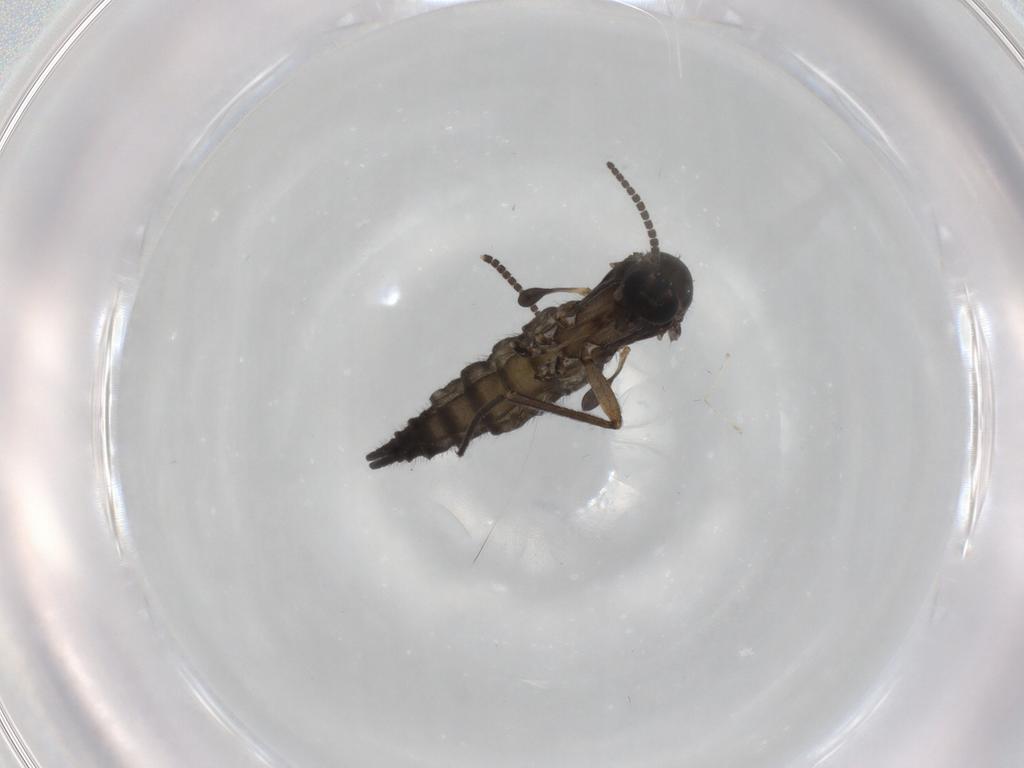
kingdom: Animalia
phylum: Arthropoda
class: Insecta
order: Diptera
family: Sciaridae
